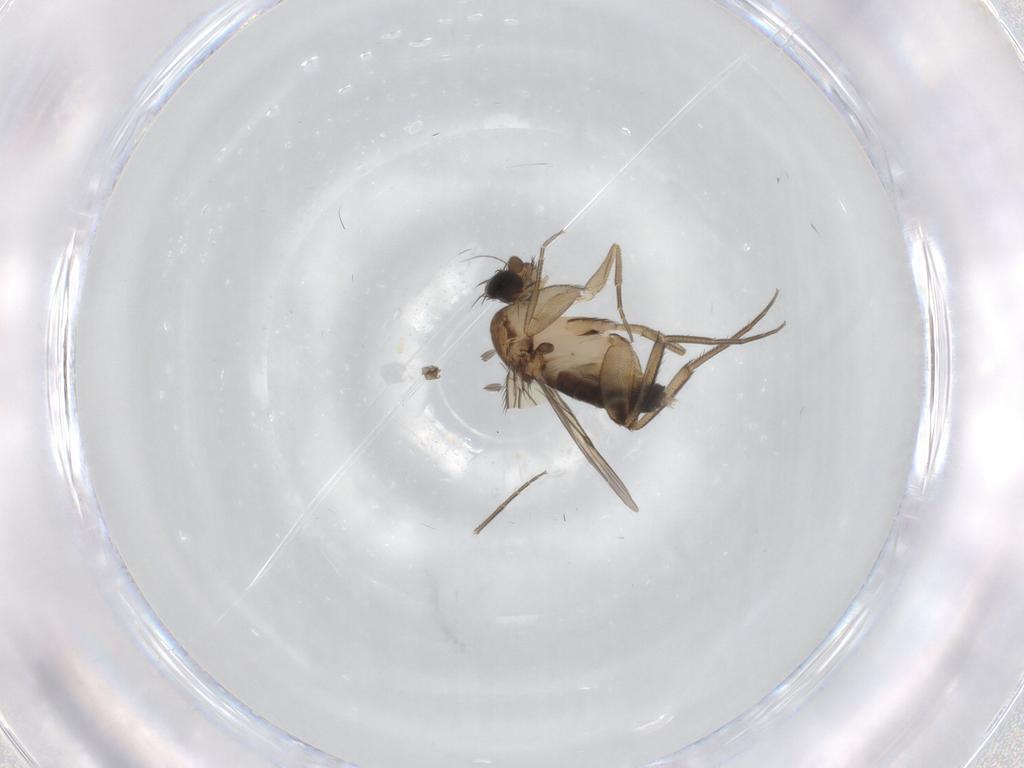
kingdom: Animalia
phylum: Arthropoda
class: Insecta
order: Diptera
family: Phoridae
